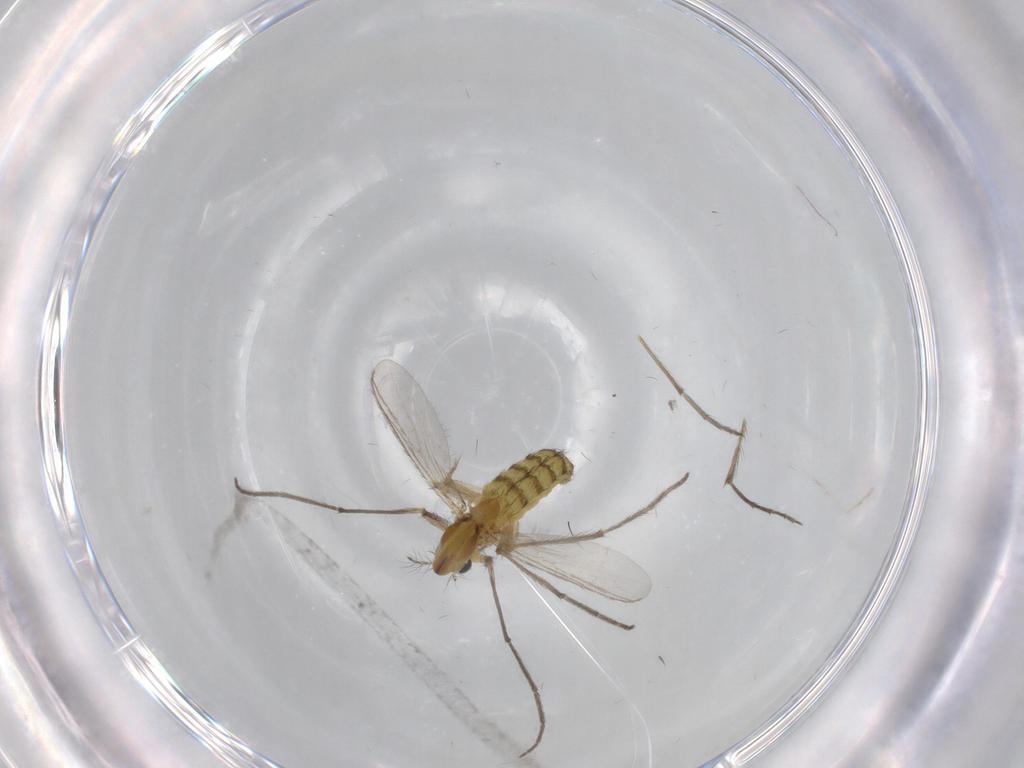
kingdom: Animalia
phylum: Arthropoda
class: Insecta
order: Diptera
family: Chironomidae
